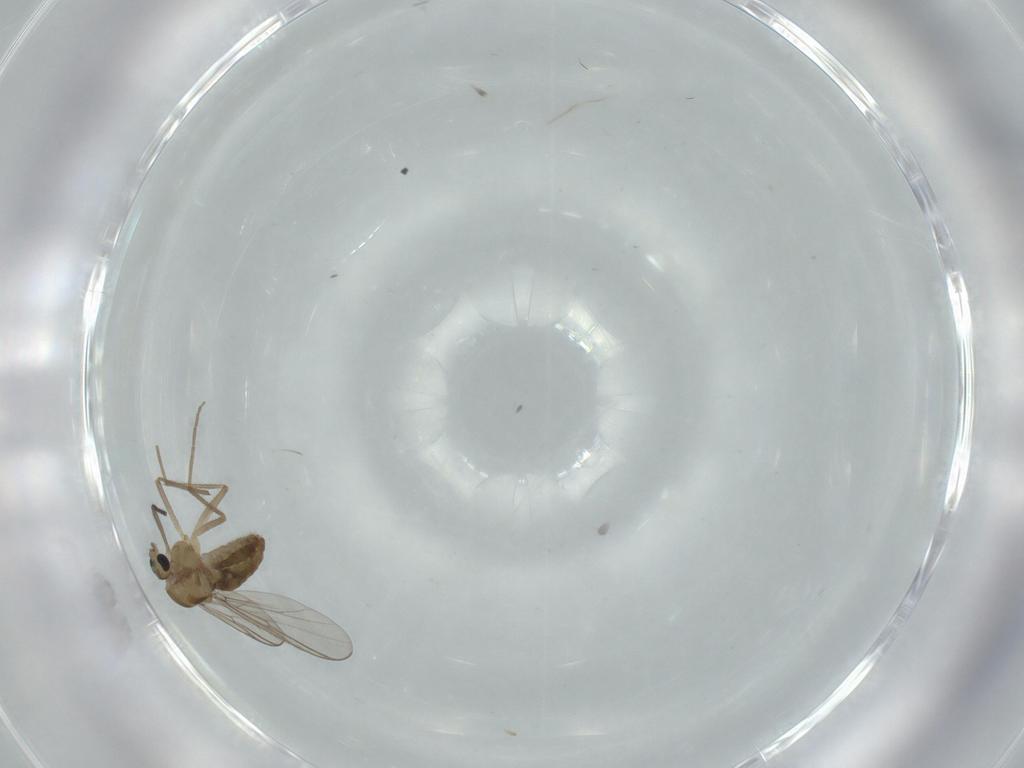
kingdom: Animalia
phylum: Arthropoda
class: Insecta
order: Diptera
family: Chironomidae
